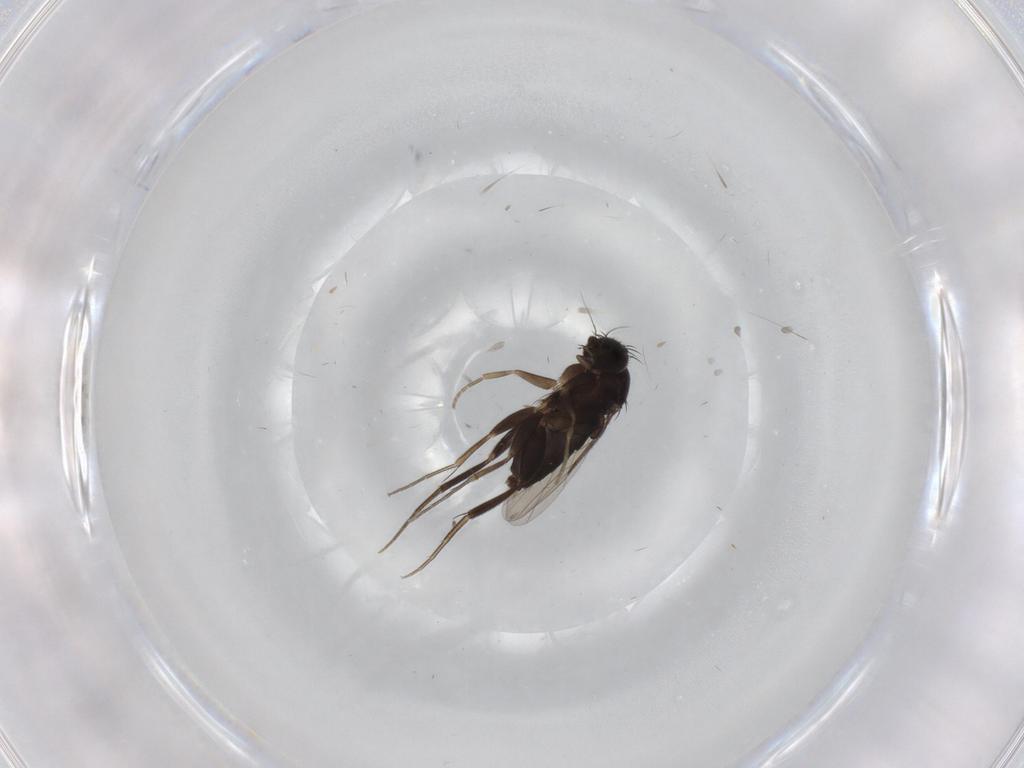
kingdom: Animalia
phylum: Arthropoda
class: Insecta
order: Diptera
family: Phoridae
